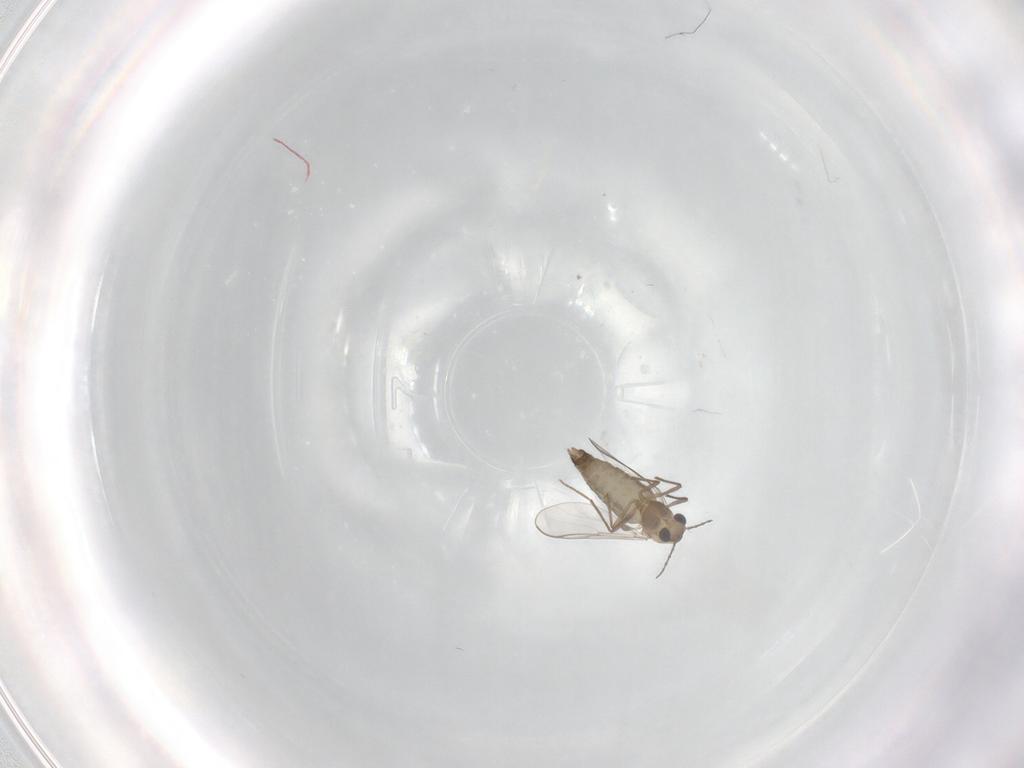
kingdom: Animalia
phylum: Arthropoda
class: Insecta
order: Diptera
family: Chironomidae
